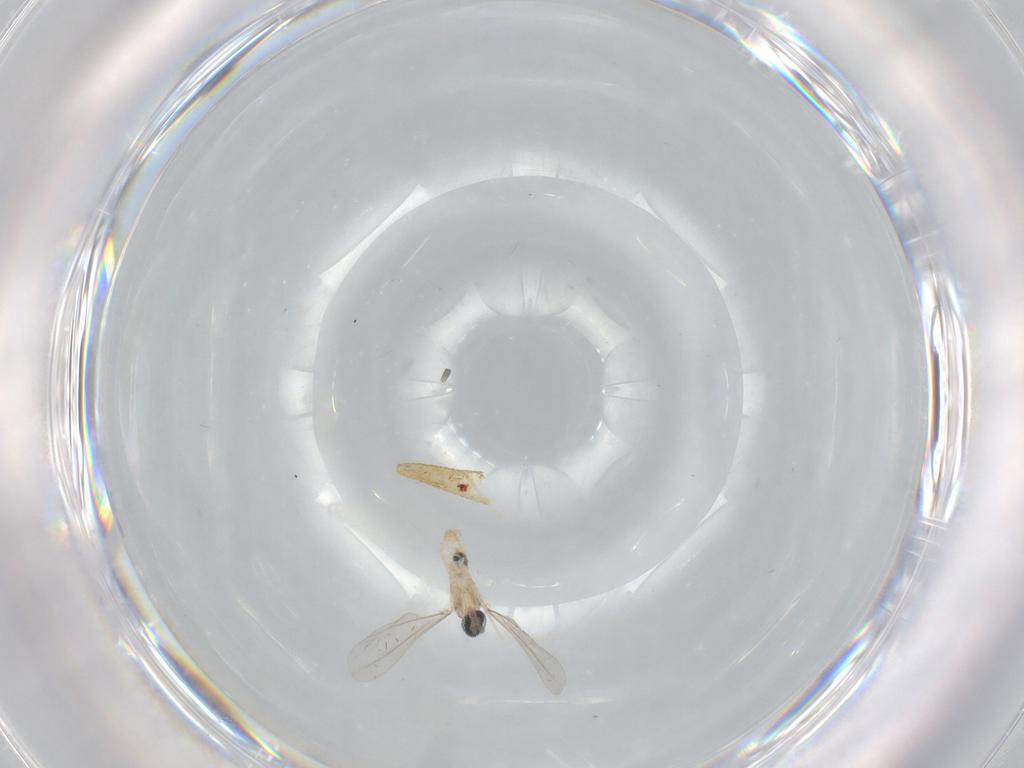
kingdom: Animalia
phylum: Arthropoda
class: Insecta
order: Diptera
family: Cecidomyiidae
